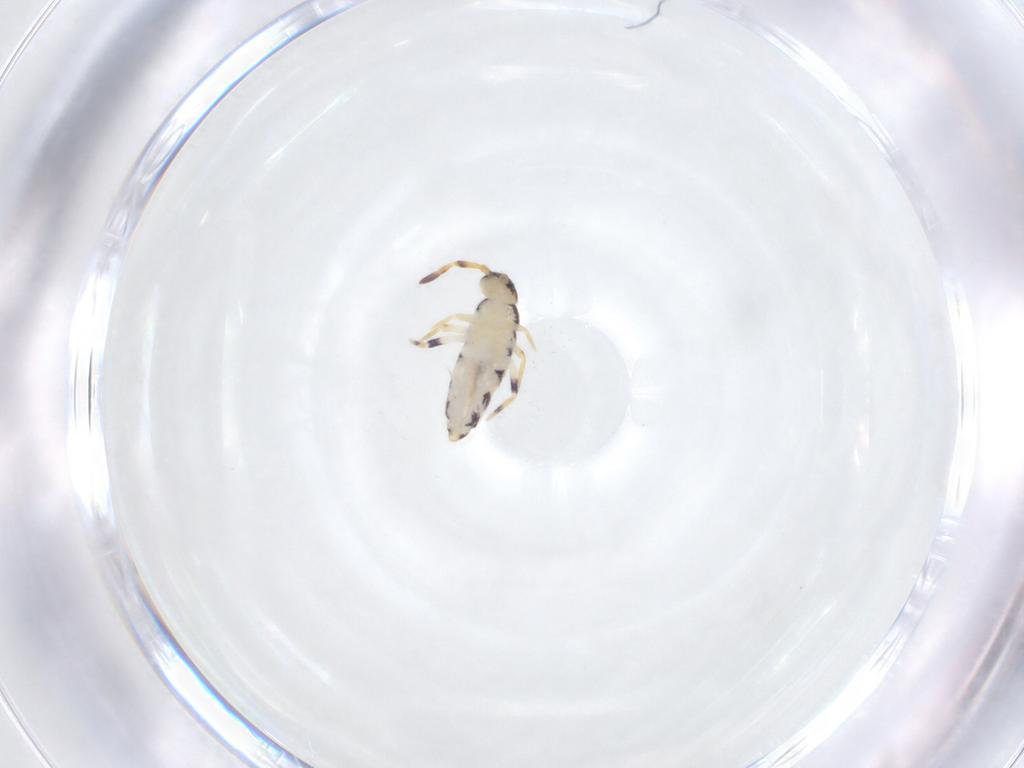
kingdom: Animalia
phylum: Arthropoda
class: Collembola
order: Entomobryomorpha
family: Isotomidae
